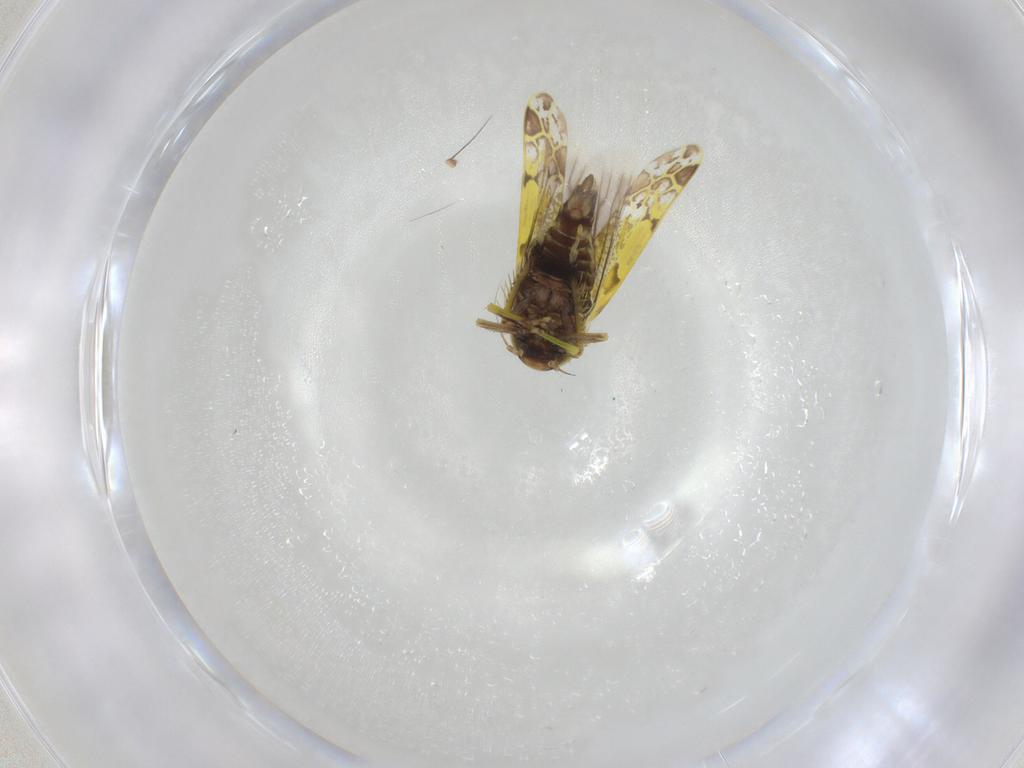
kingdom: Animalia
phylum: Arthropoda
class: Insecta
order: Hemiptera
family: Cicadellidae
